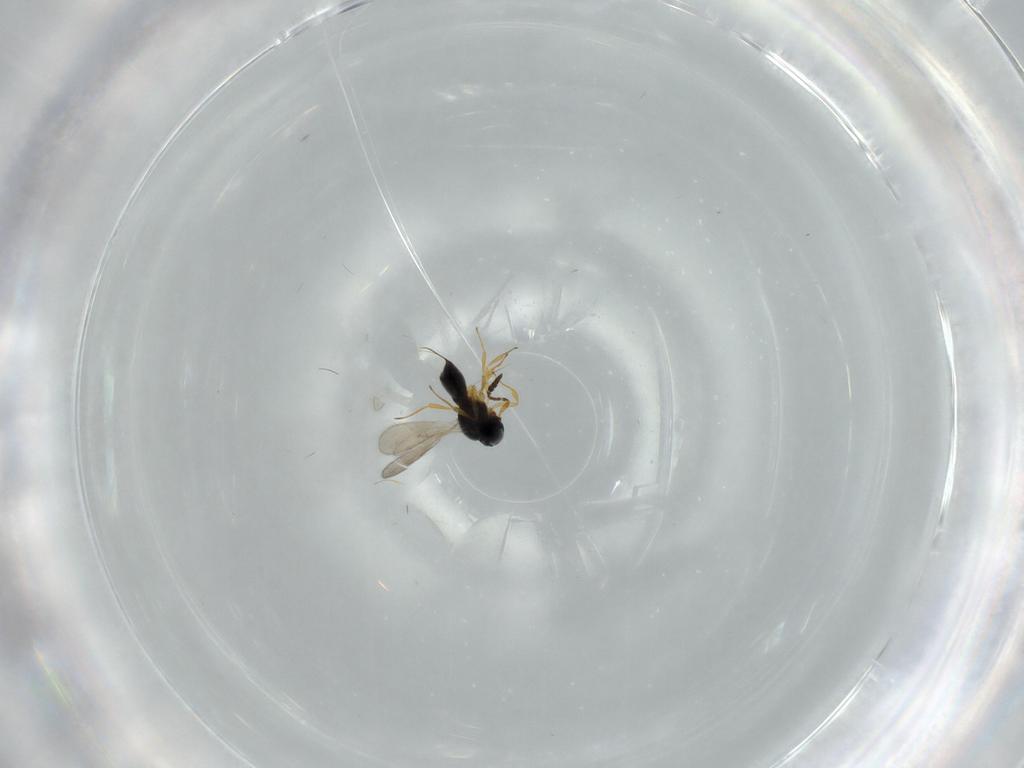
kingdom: Animalia
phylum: Arthropoda
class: Insecta
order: Hymenoptera
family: Scelionidae
